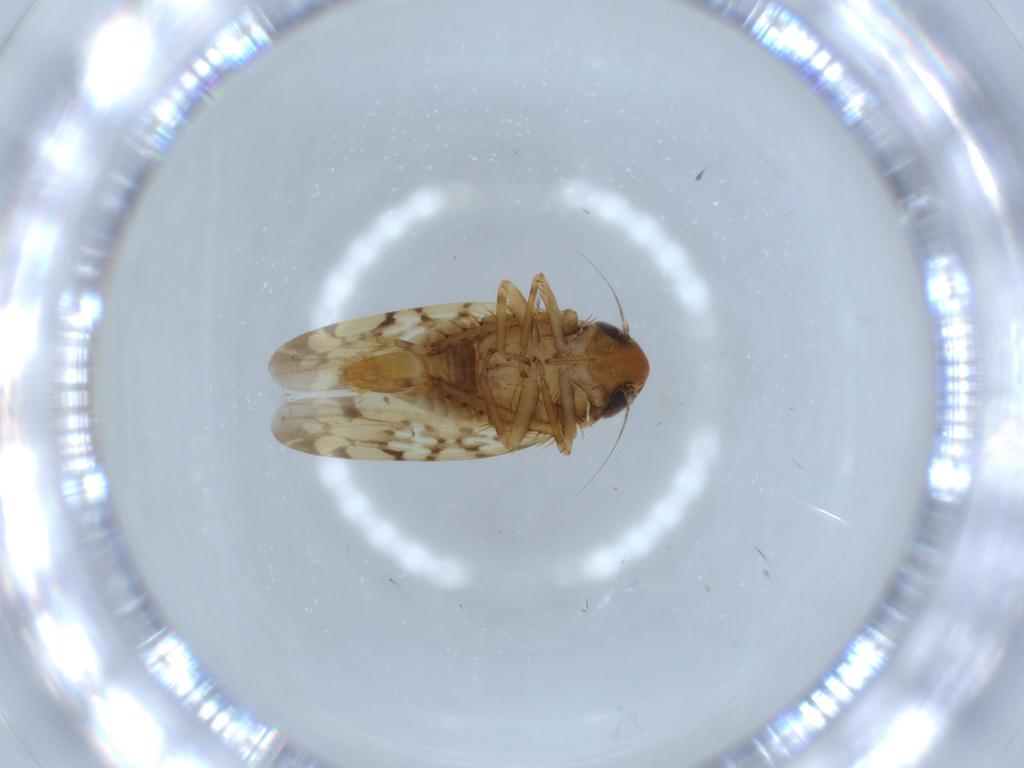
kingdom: Animalia
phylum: Arthropoda
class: Insecta
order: Hemiptera
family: Cicadellidae
